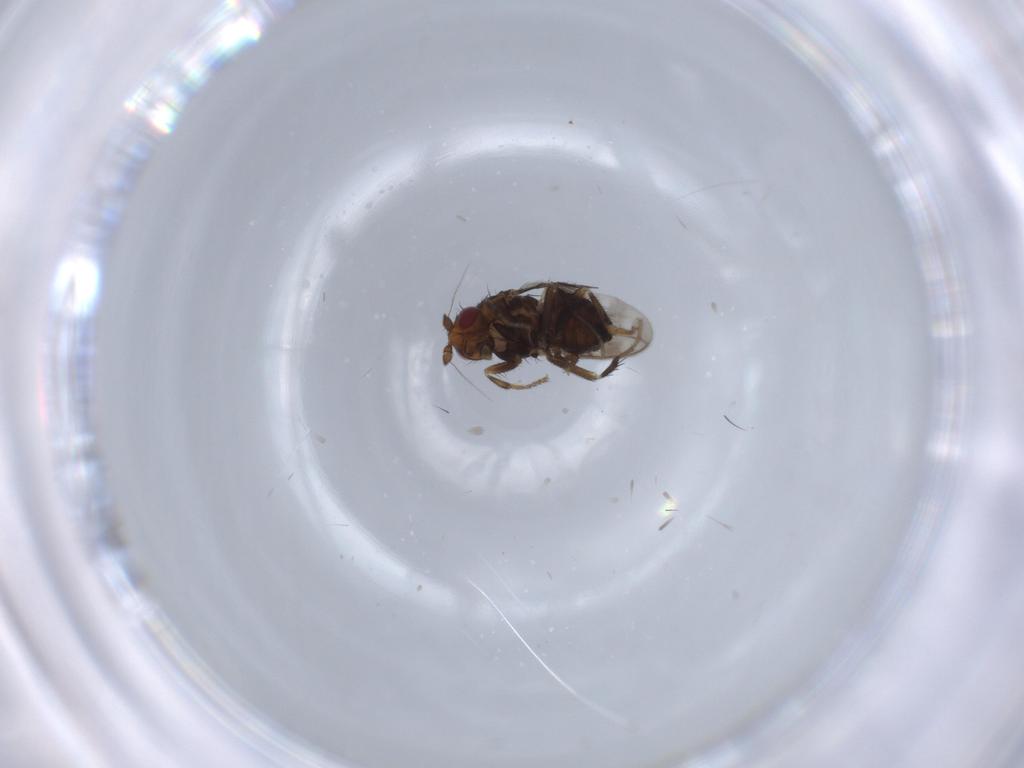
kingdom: Animalia
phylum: Arthropoda
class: Insecta
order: Diptera
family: Sphaeroceridae
